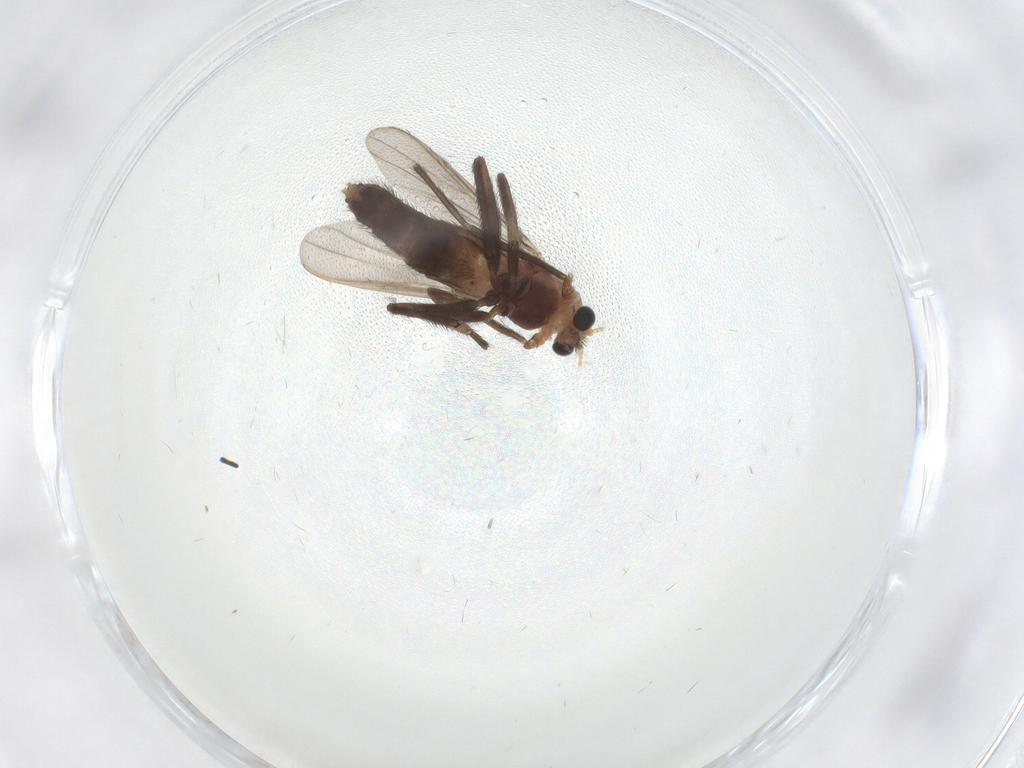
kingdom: Animalia
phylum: Arthropoda
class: Insecta
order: Diptera
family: Chironomidae
